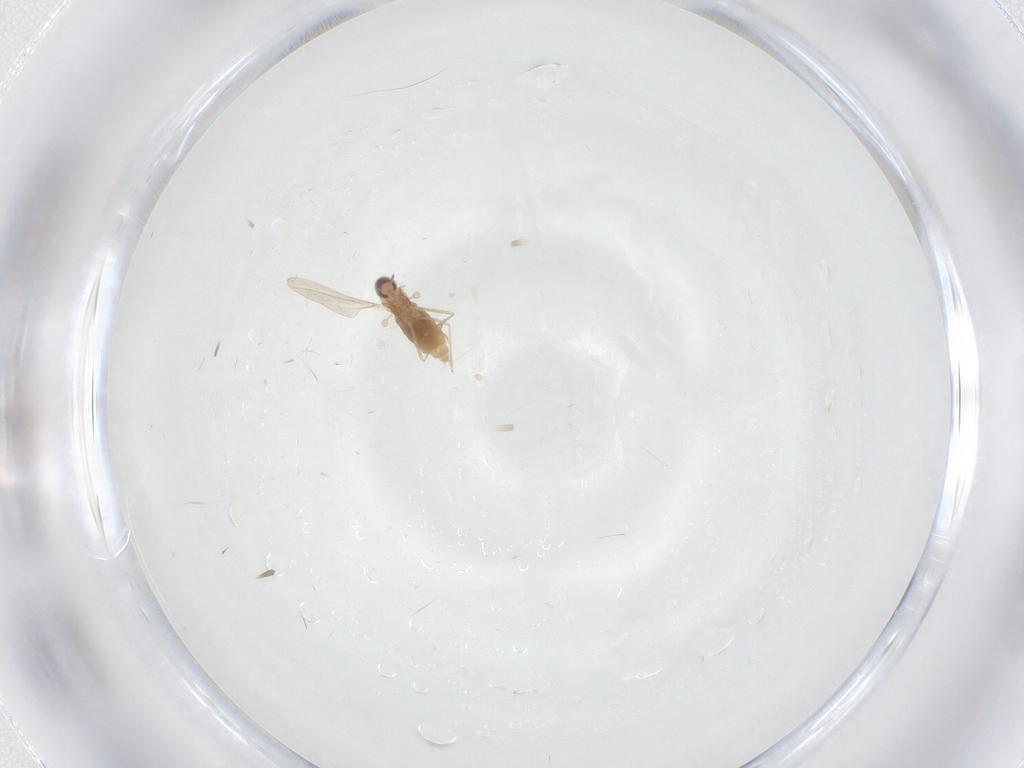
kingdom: Animalia
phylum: Arthropoda
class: Insecta
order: Diptera
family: Cecidomyiidae
